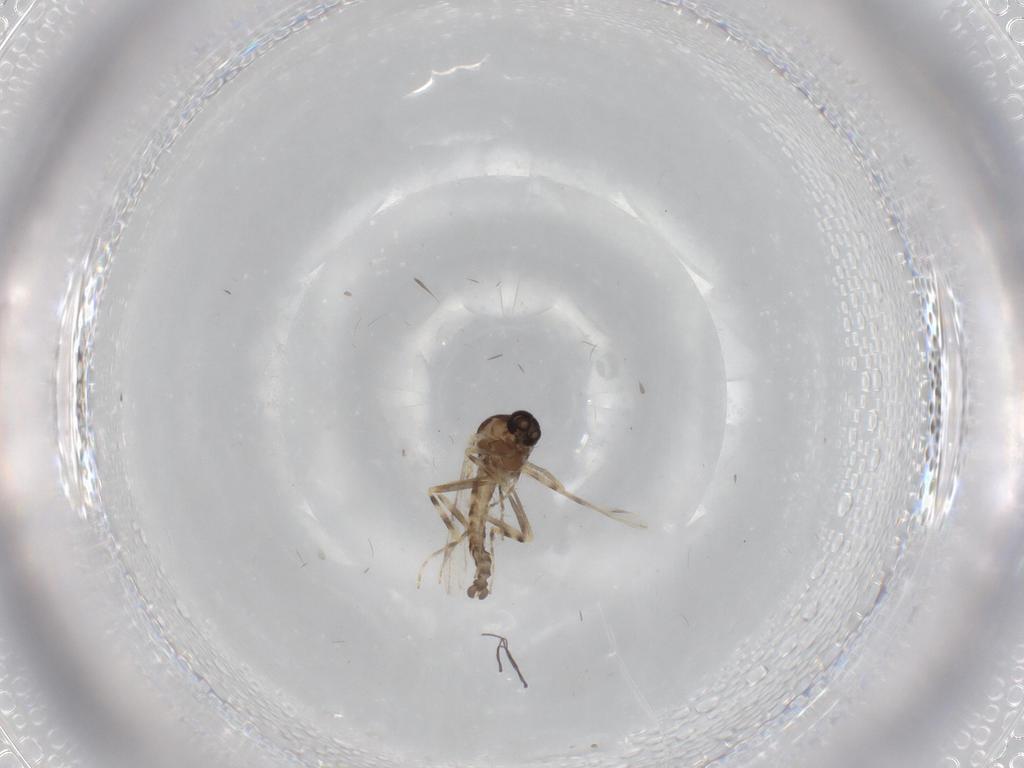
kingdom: Animalia
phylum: Arthropoda
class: Insecta
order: Diptera
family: Ceratopogonidae
